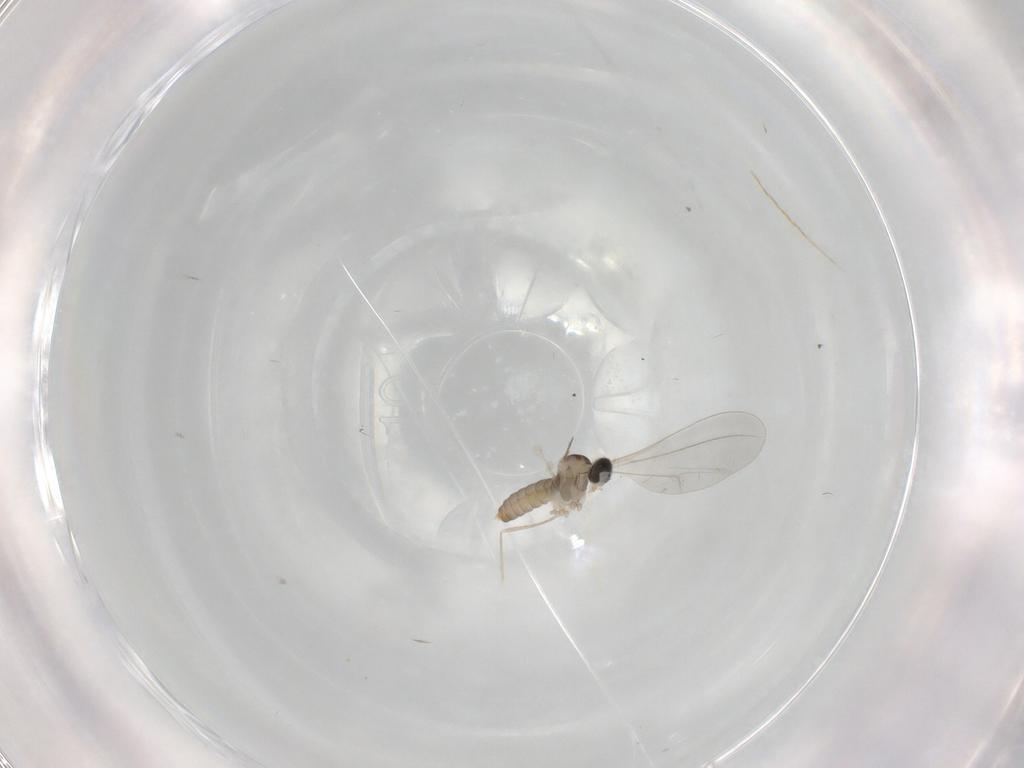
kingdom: Animalia
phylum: Arthropoda
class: Insecta
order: Diptera
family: Cecidomyiidae
